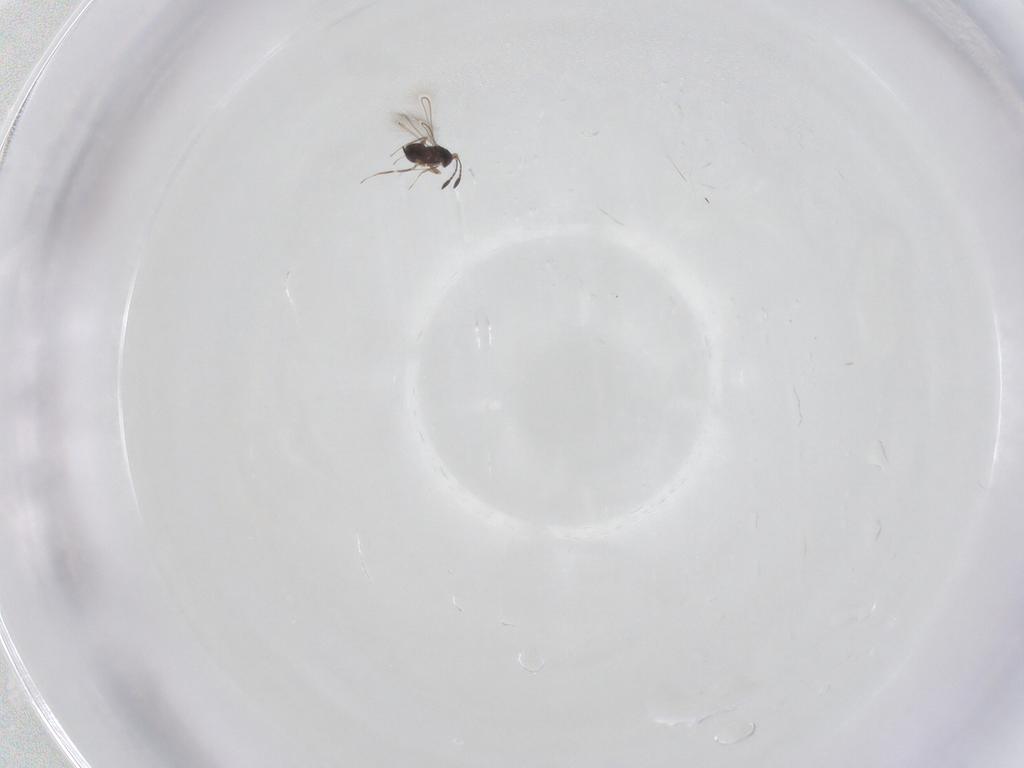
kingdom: Animalia
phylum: Arthropoda
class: Insecta
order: Hymenoptera
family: Mymaridae
